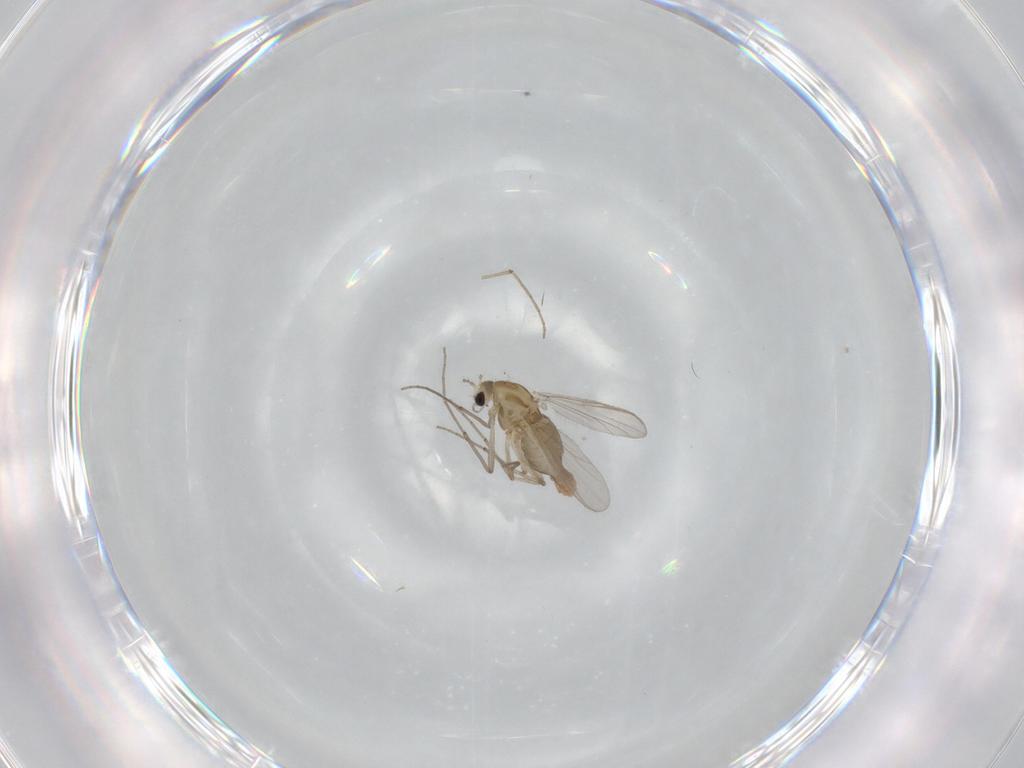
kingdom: Animalia
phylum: Arthropoda
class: Insecta
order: Diptera
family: Chironomidae
